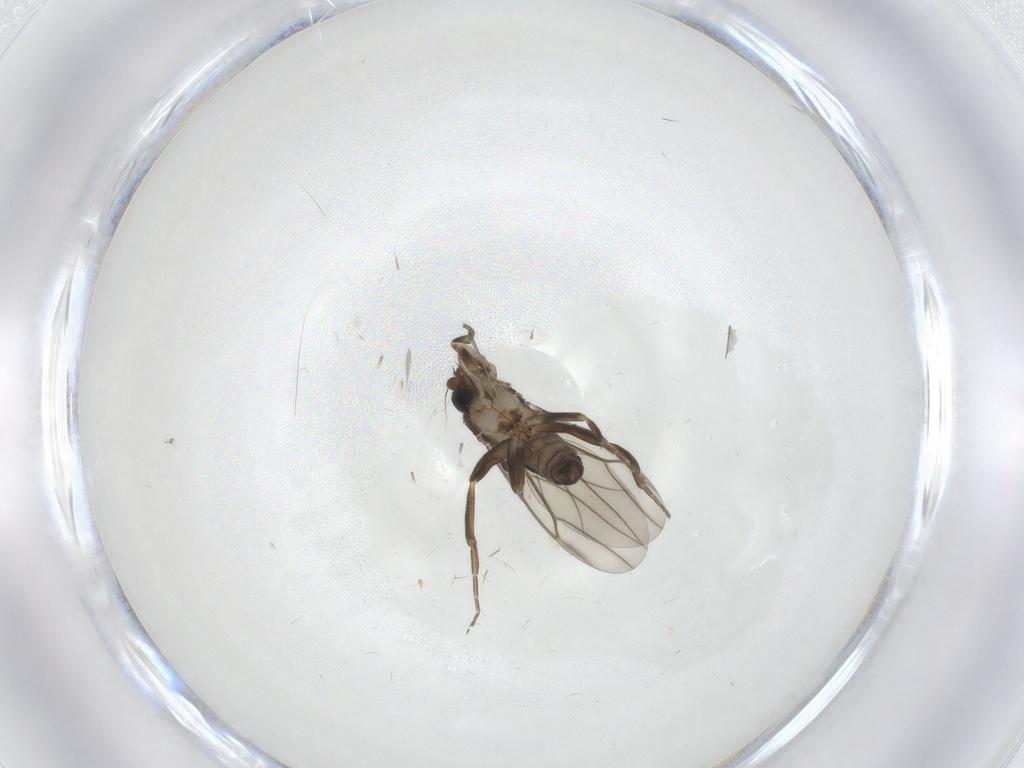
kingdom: Animalia
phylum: Arthropoda
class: Insecta
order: Diptera
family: Phoridae
